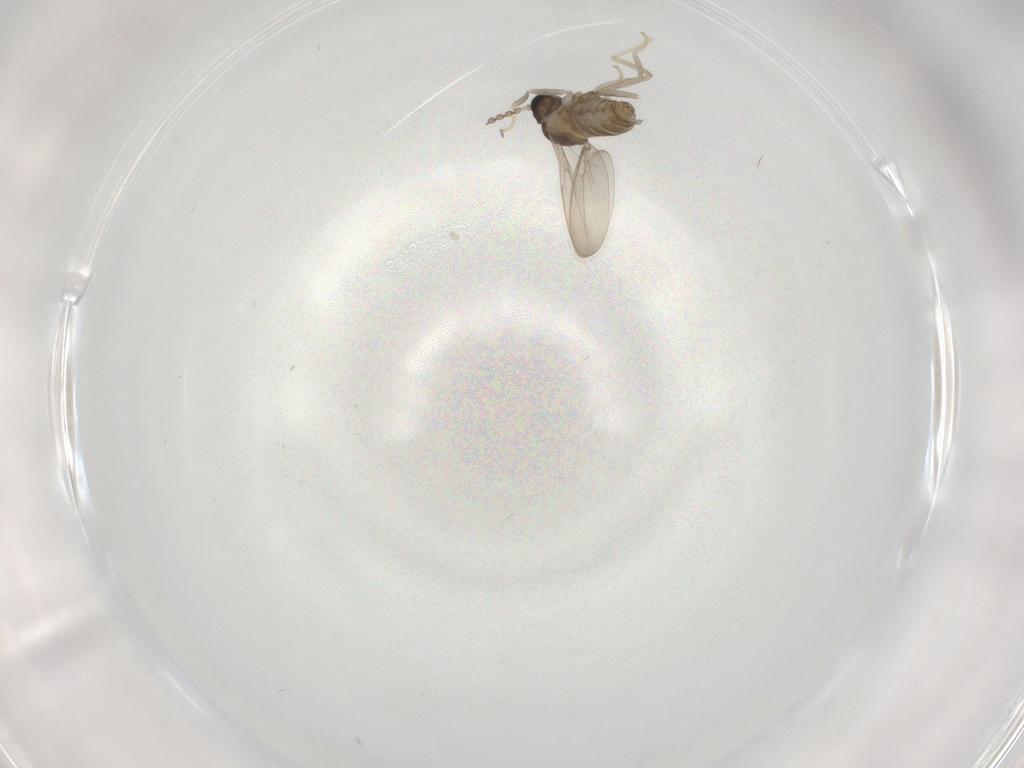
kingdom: Animalia
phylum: Arthropoda
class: Insecta
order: Diptera
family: Cecidomyiidae
